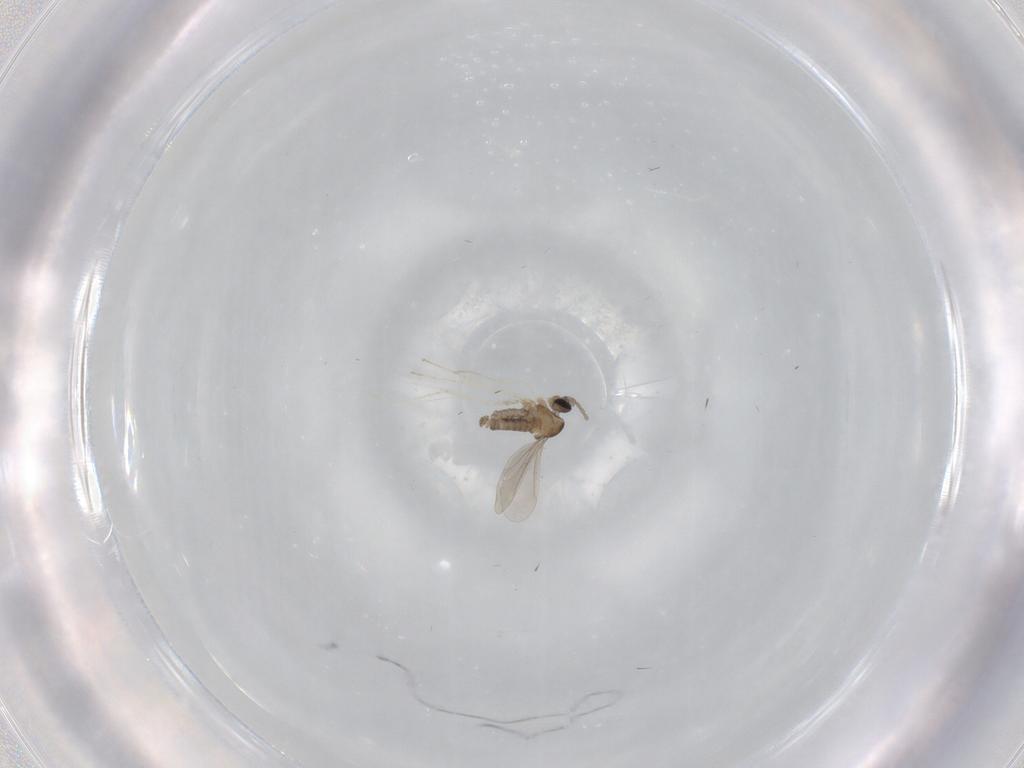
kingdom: Animalia
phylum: Arthropoda
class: Insecta
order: Diptera
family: Cecidomyiidae
